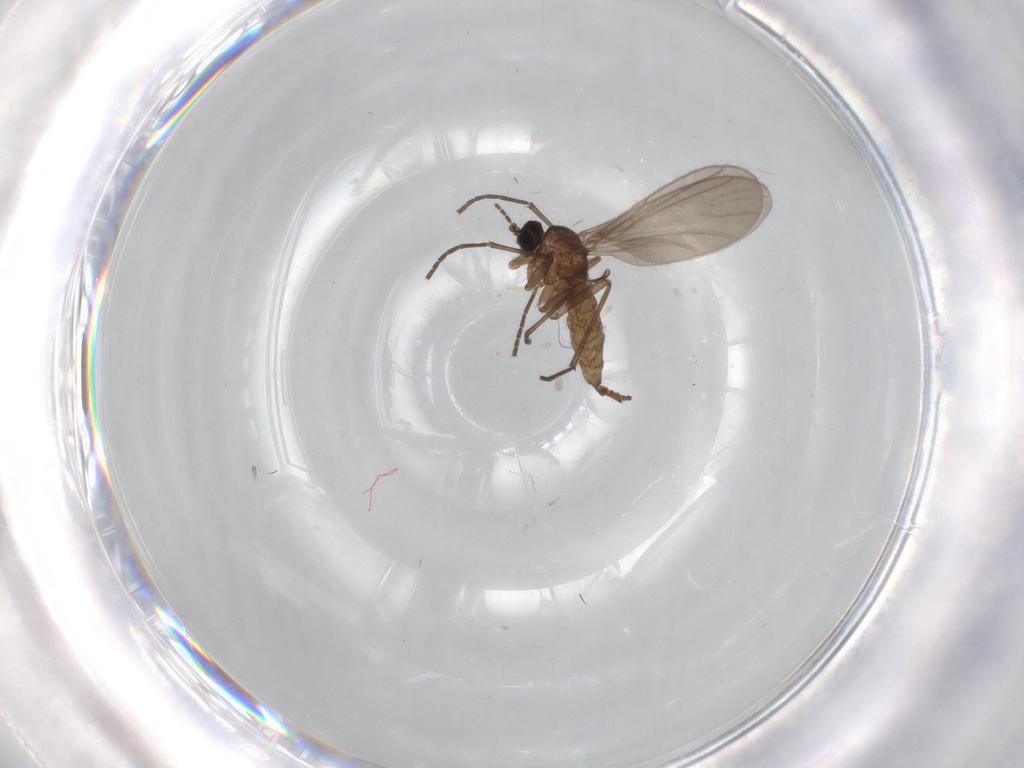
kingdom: Animalia
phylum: Arthropoda
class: Insecta
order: Diptera
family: Cecidomyiidae
